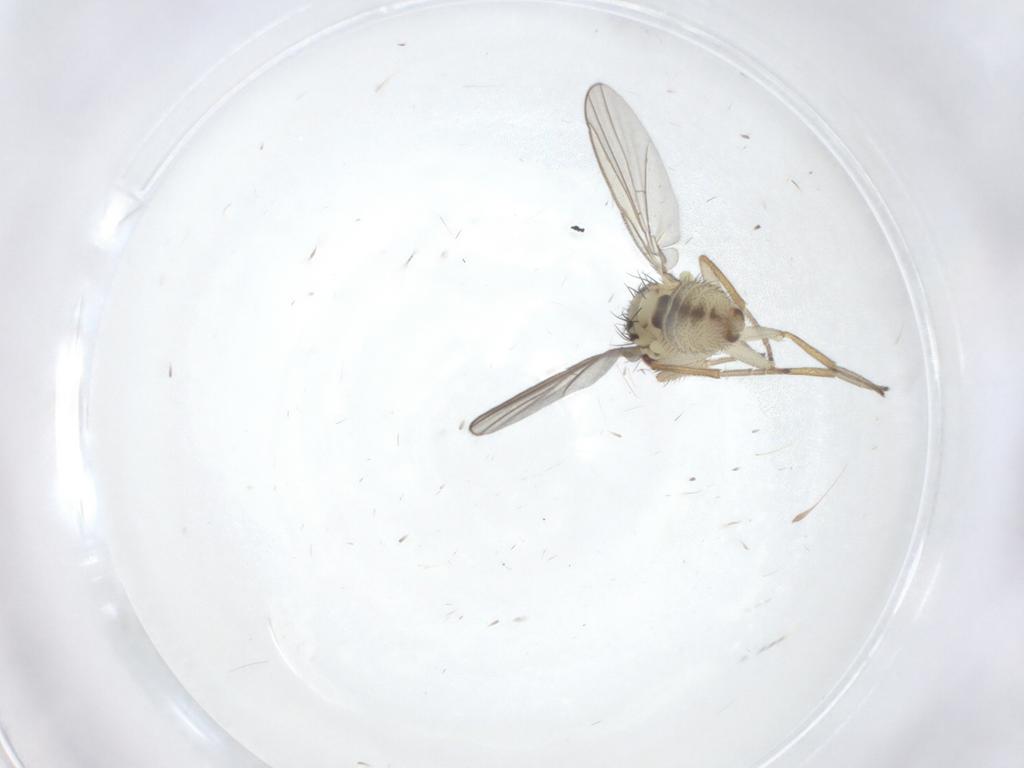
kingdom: Animalia
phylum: Arthropoda
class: Insecta
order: Diptera
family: Agromyzidae
